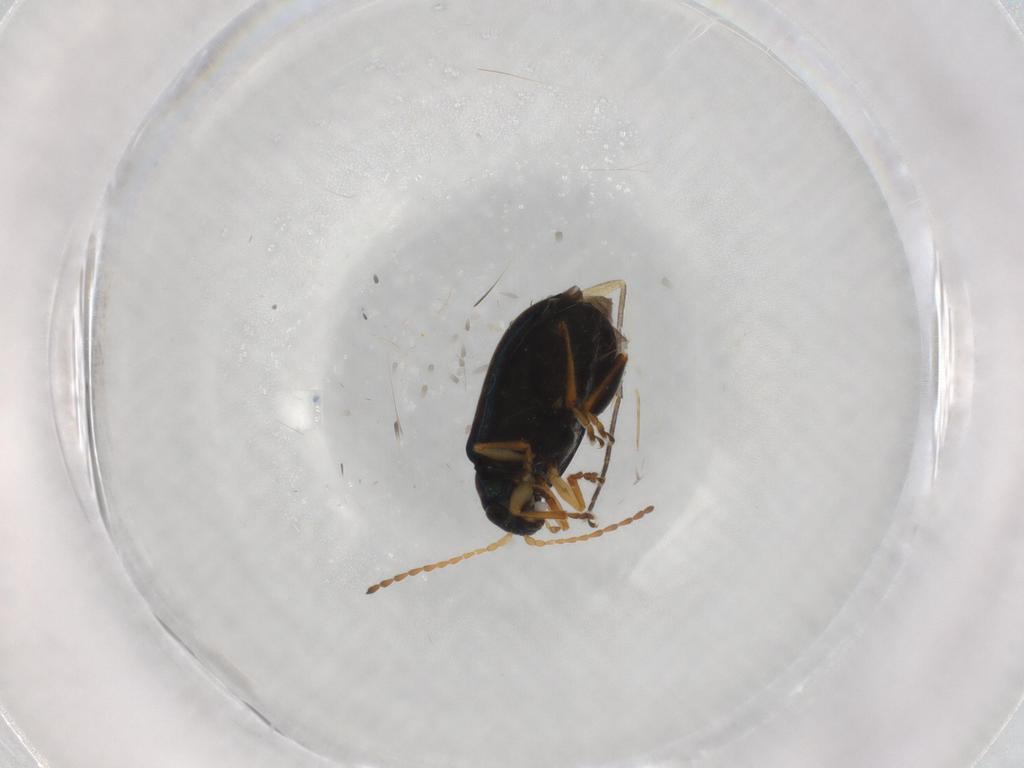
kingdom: Animalia
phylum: Arthropoda
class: Insecta
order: Coleoptera
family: Chrysomelidae
